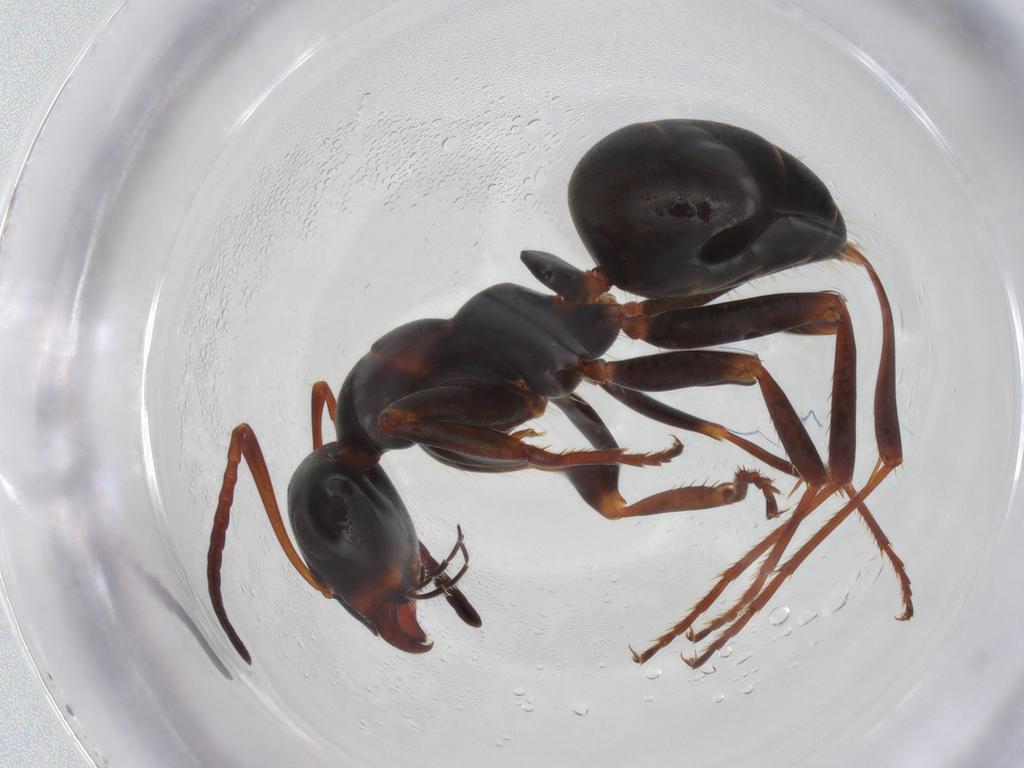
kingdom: Animalia
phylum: Arthropoda
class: Insecta
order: Hymenoptera
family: Formicidae
